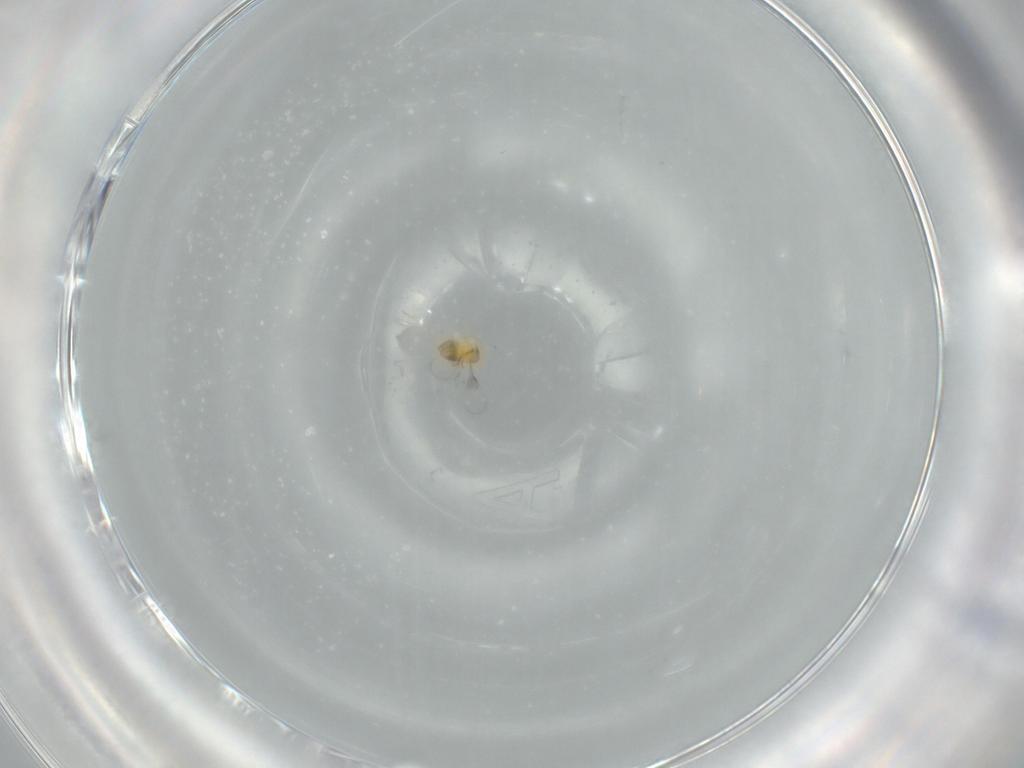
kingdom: Animalia
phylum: Arthropoda
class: Insecta
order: Hymenoptera
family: Trichogrammatidae
